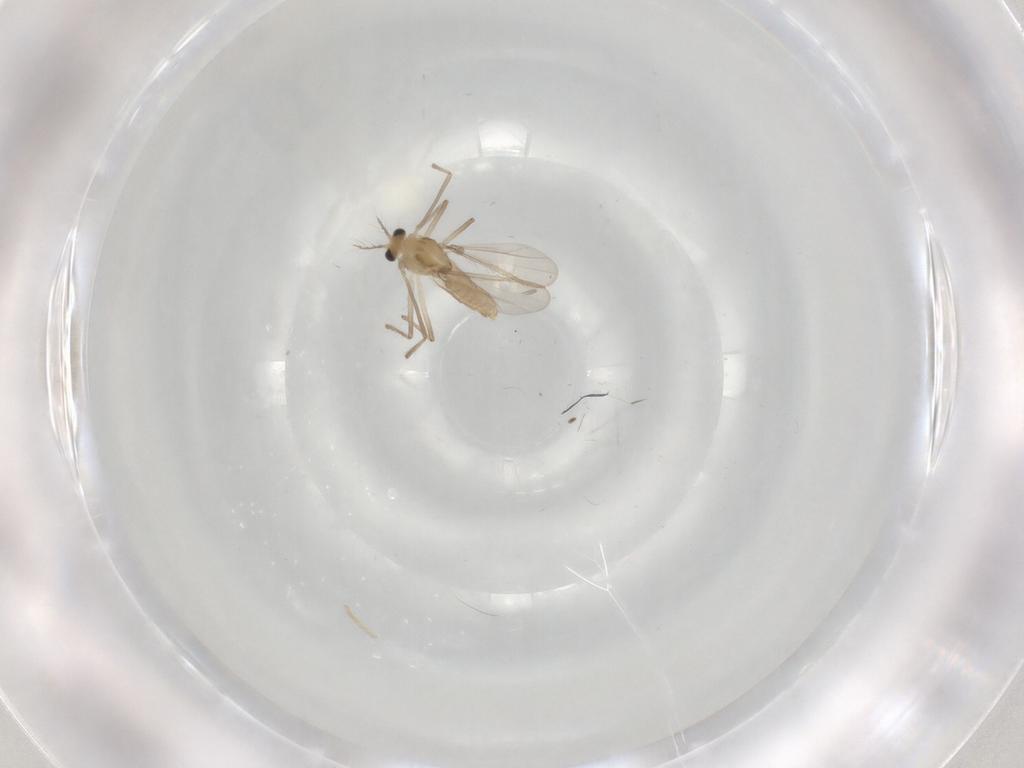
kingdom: Animalia
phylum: Arthropoda
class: Insecta
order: Diptera
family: Chironomidae
